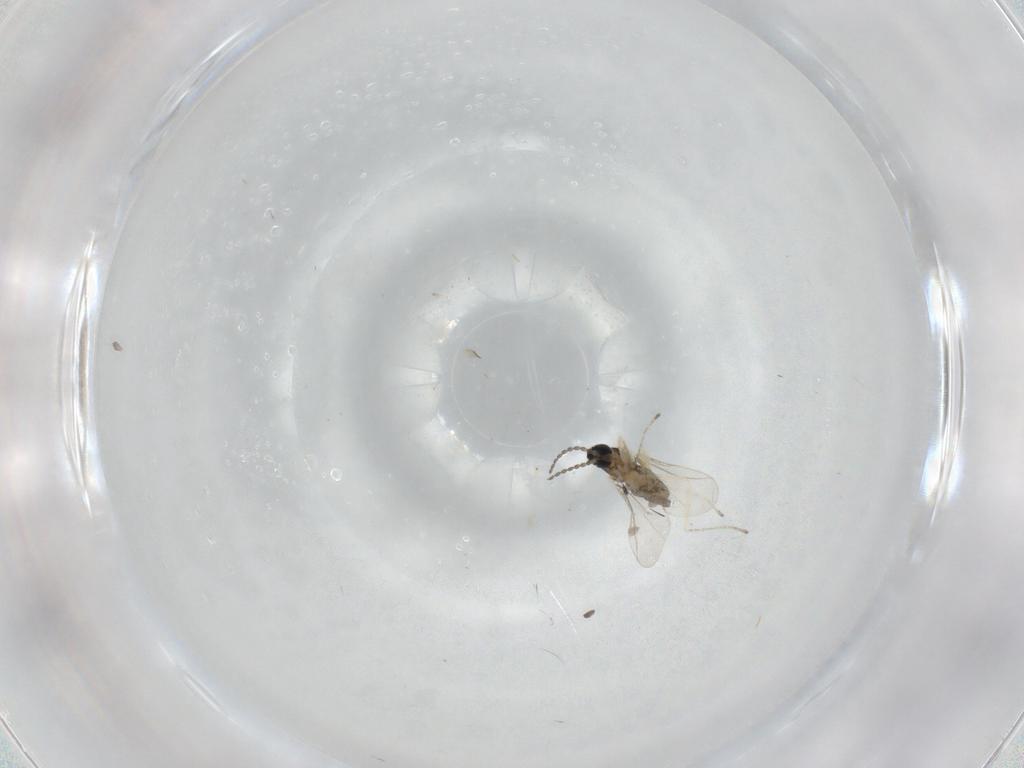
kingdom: Animalia
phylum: Arthropoda
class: Insecta
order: Diptera
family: Cecidomyiidae
